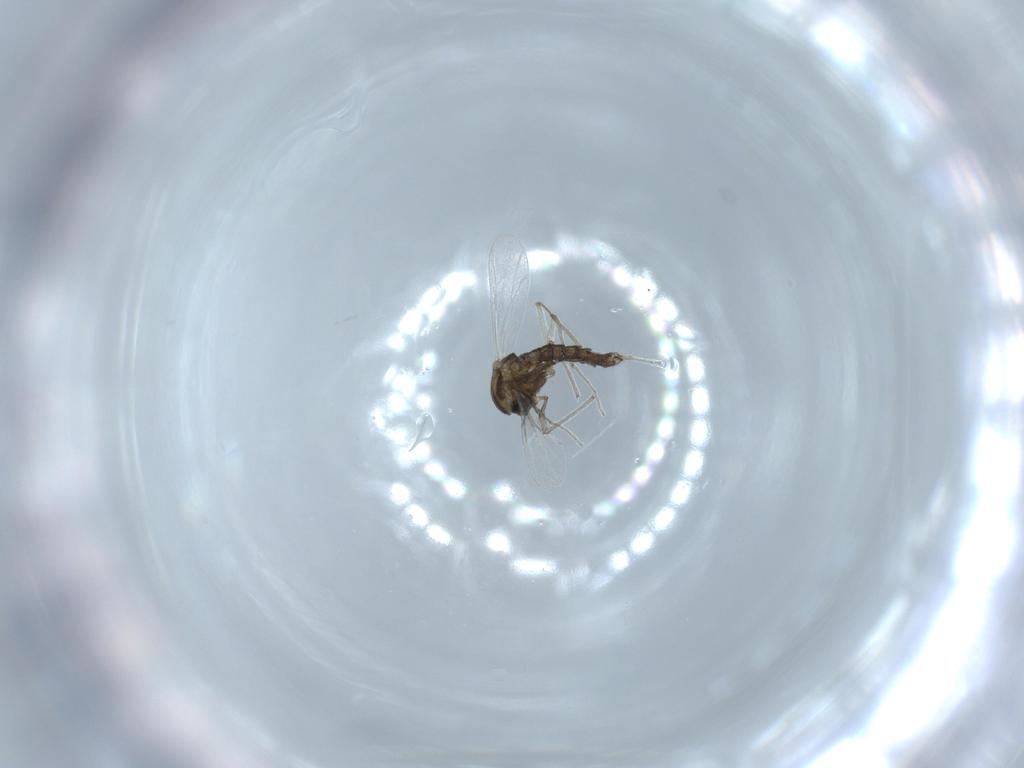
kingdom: Animalia
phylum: Arthropoda
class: Insecta
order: Diptera
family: Chironomidae
